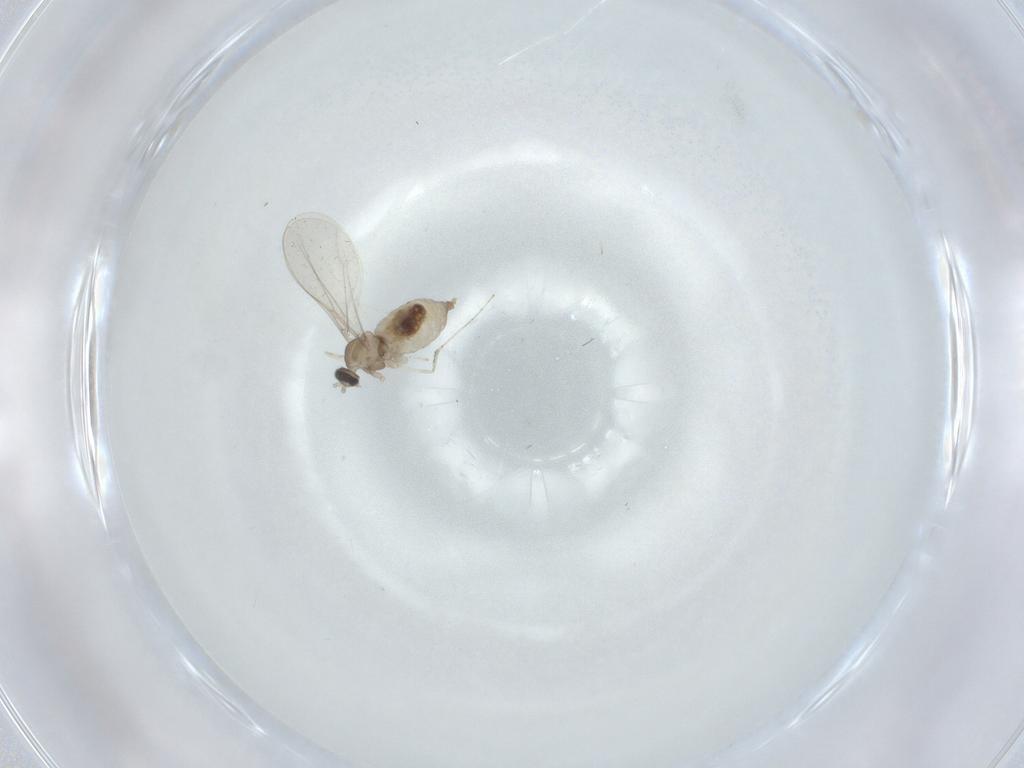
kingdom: Animalia
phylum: Arthropoda
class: Insecta
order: Diptera
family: Cecidomyiidae
